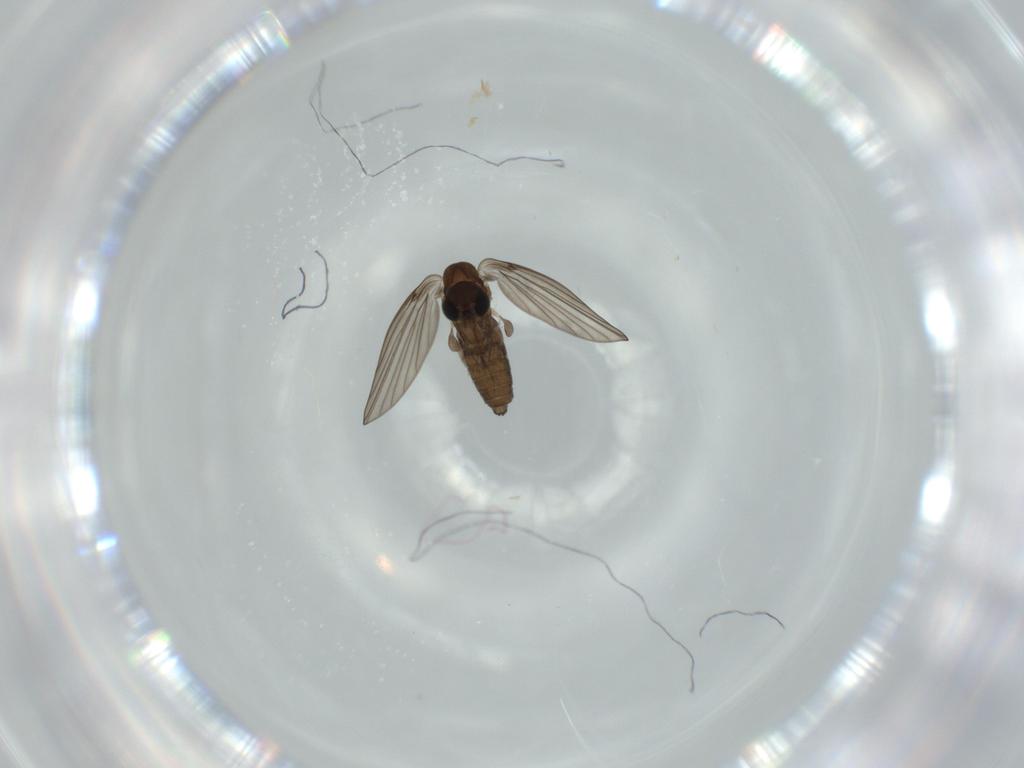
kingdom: Animalia
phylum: Arthropoda
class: Insecta
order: Diptera
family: Psychodidae
